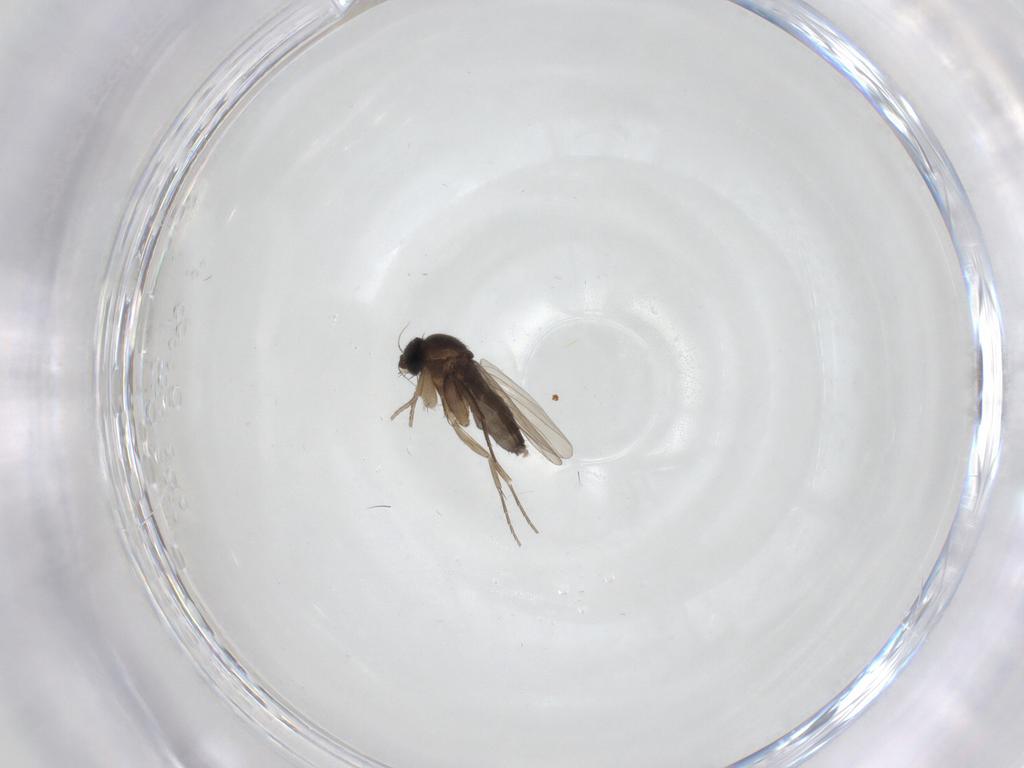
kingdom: Animalia
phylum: Arthropoda
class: Insecta
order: Diptera
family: Phoridae
